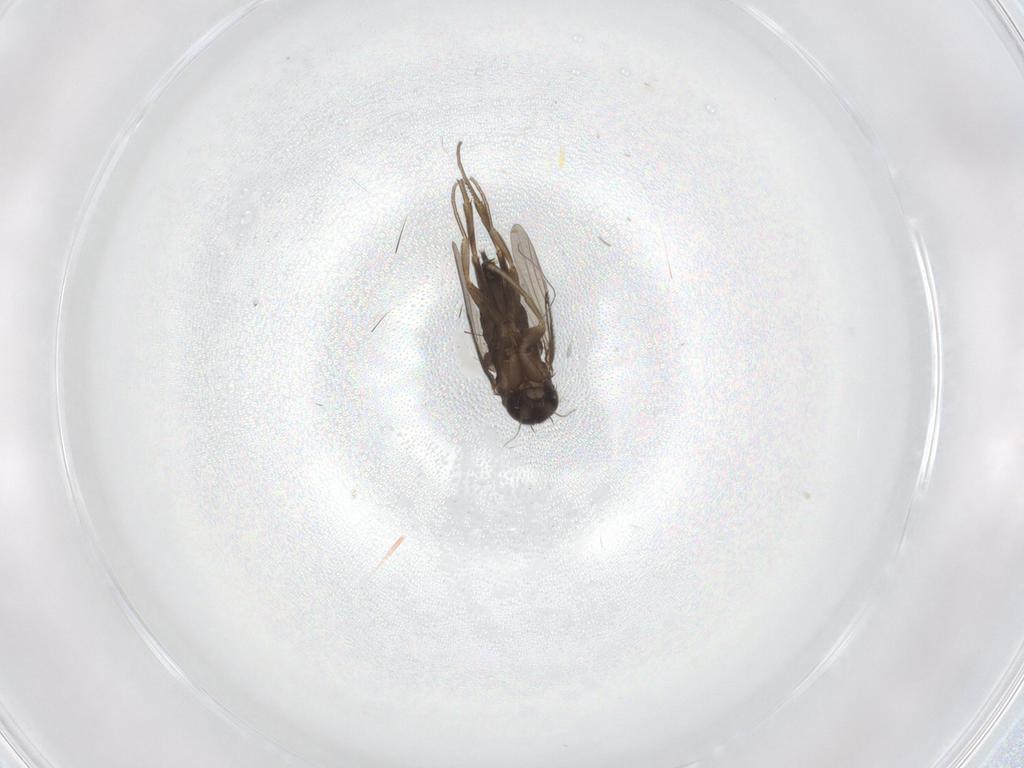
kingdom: Animalia
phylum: Arthropoda
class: Insecta
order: Diptera
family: Phoridae
